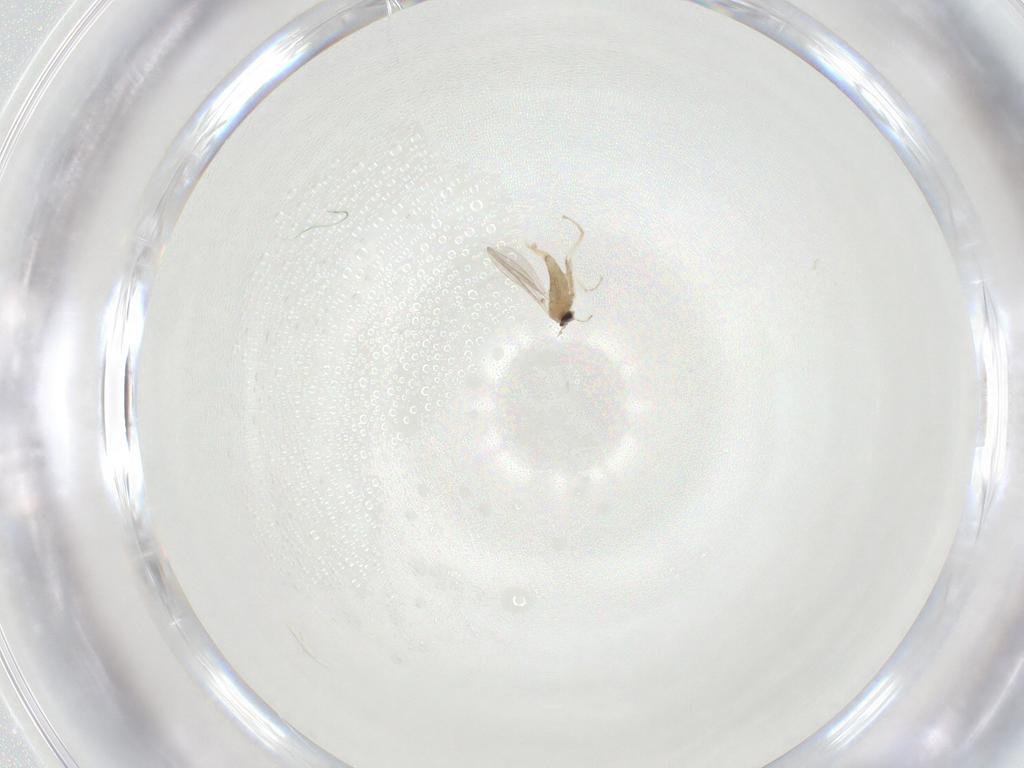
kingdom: Animalia
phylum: Arthropoda
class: Insecta
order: Diptera
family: Cecidomyiidae
